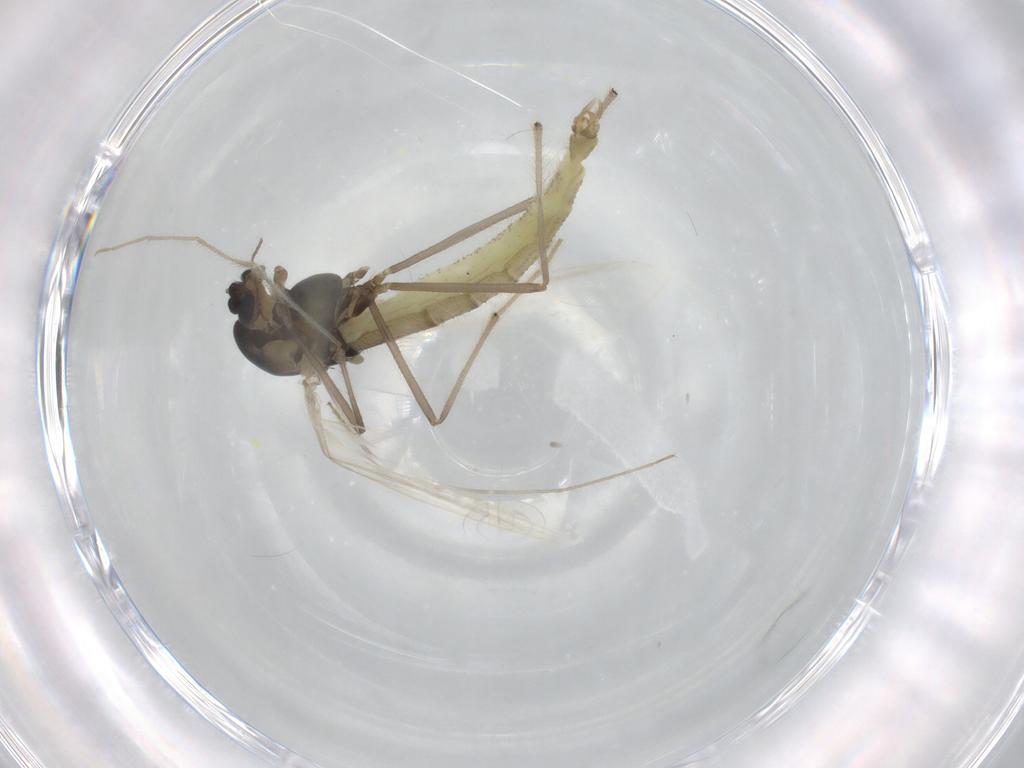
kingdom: Animalia
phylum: Arthropoda
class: Insecta
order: Diptera
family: Chironomidae
